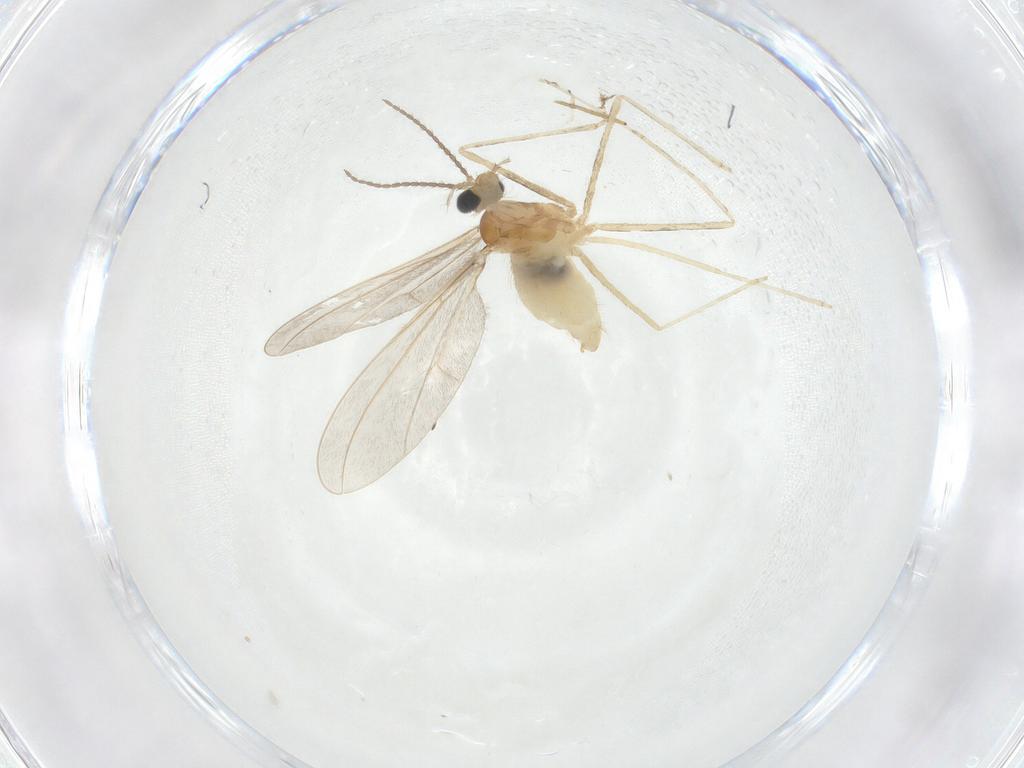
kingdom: Animalia
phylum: Arthropoda
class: Insecta
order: Diptera
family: Cecidomyiidae
